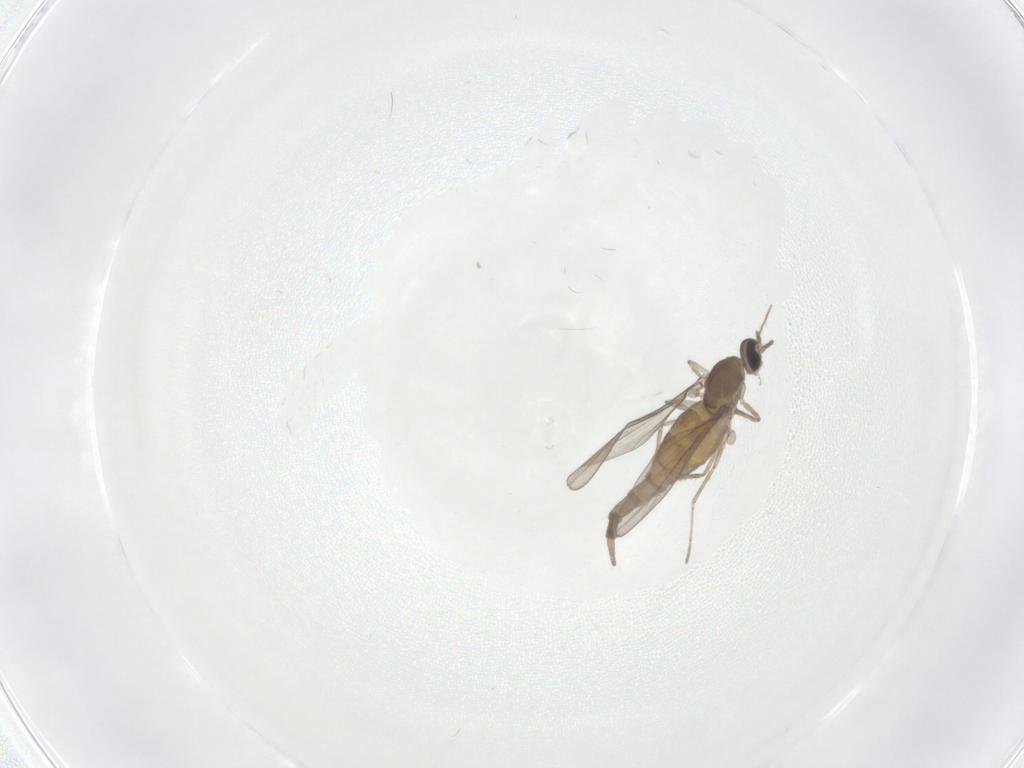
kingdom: Animalia
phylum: Arthropoda
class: Insecta
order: Diptera
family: Cecidomyiidae
